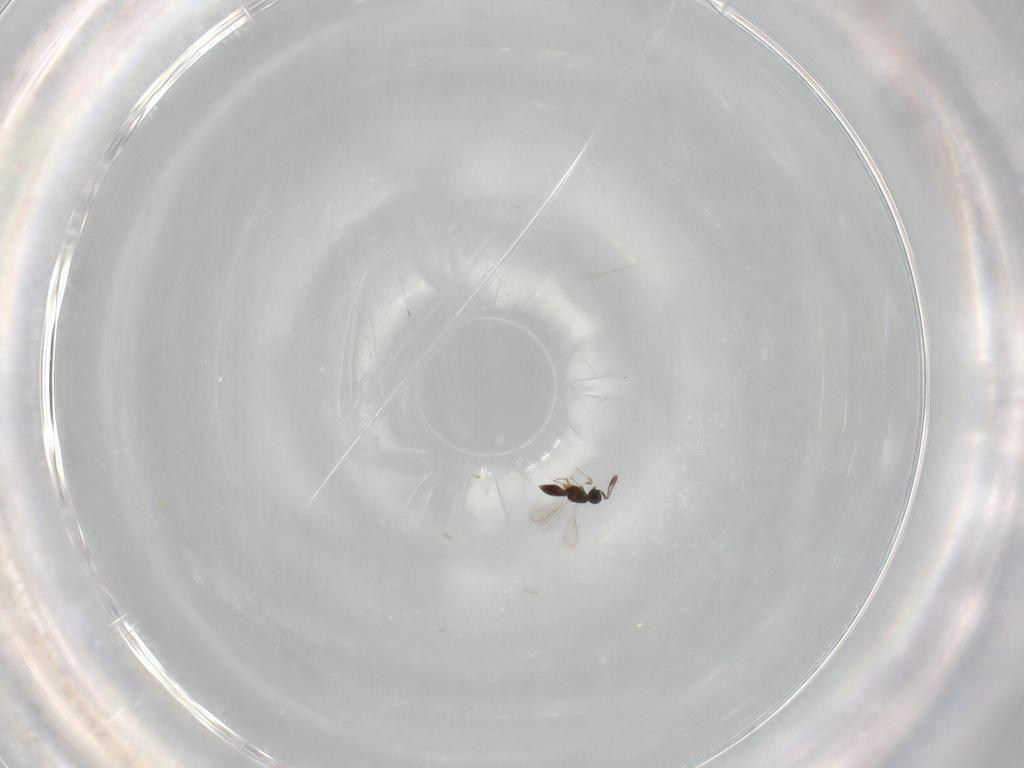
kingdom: Animalia
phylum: Arthropoda
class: Insecta
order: Hymenoptera
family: Scelionidae
